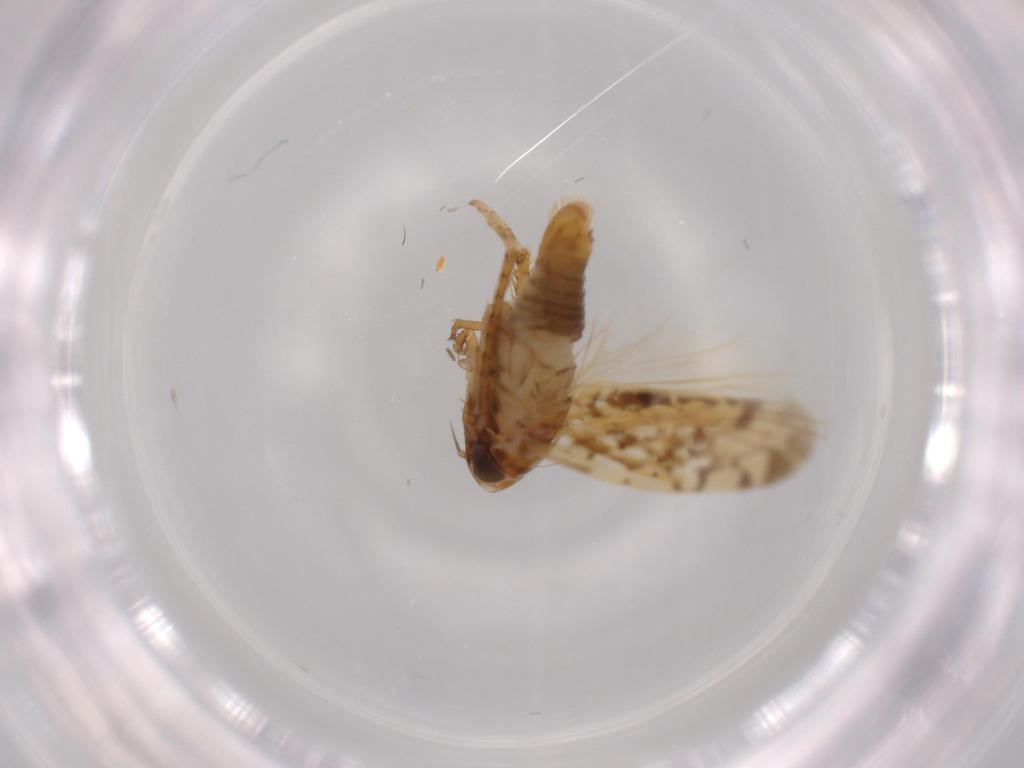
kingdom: Animalia
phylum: Arthropoda
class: Insecta
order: Hemiptera
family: Cicadellidae
